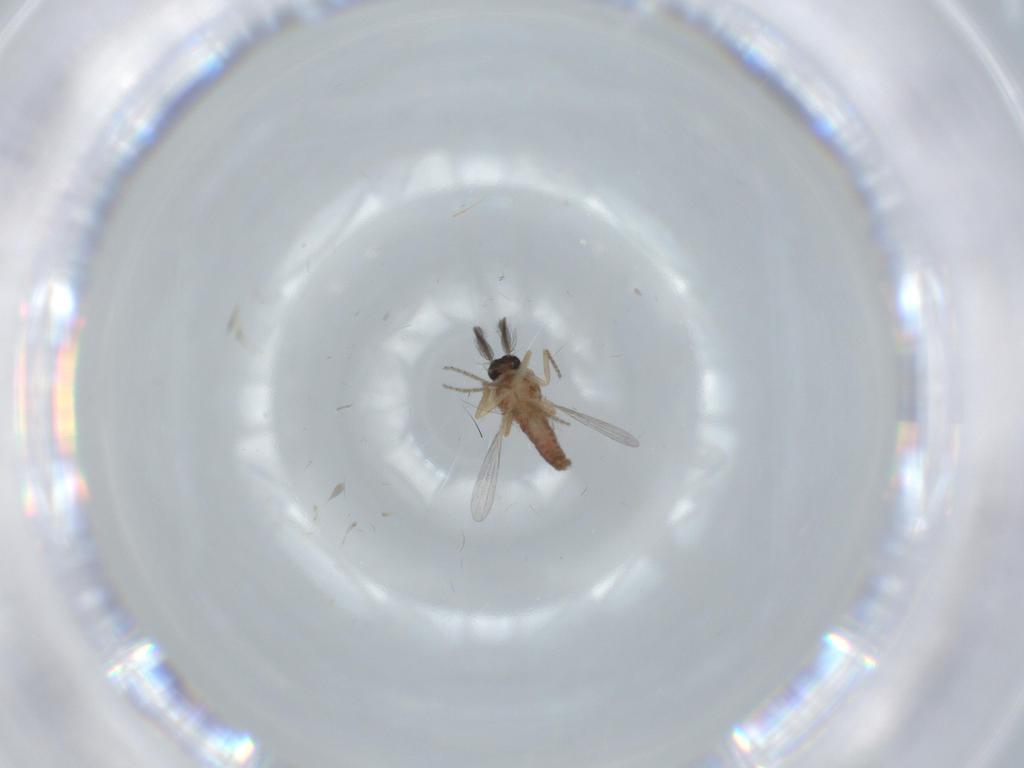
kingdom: Animalia
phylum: Arthropoda
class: Insecta
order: Diptera
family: Ceratopogonidae
